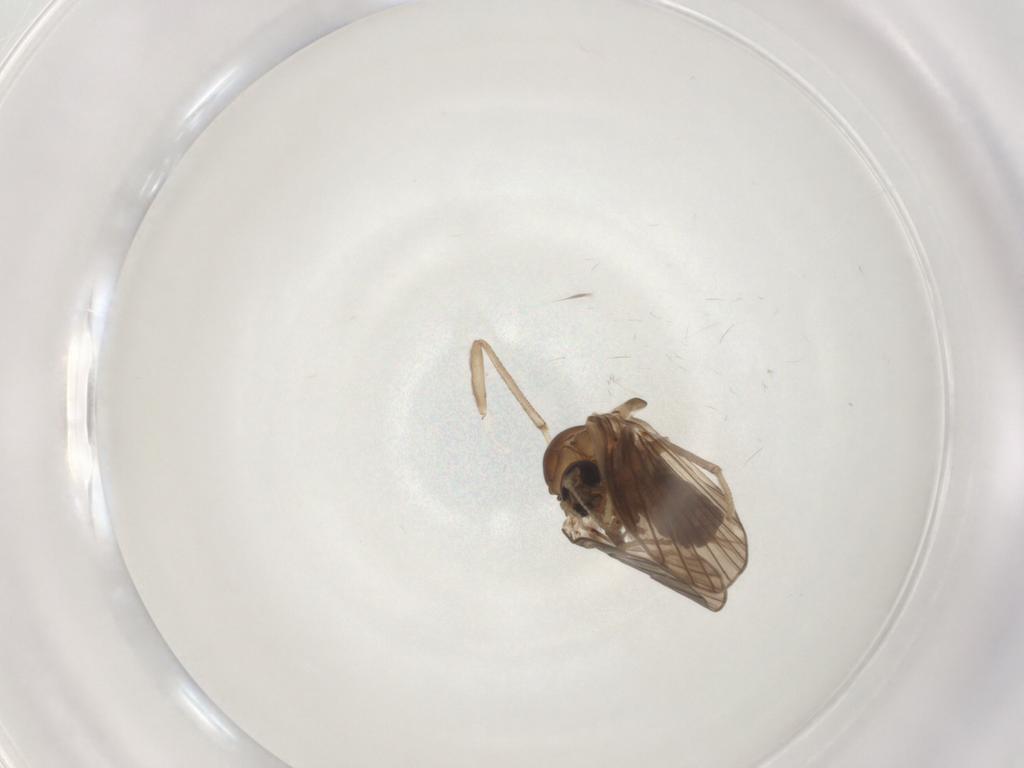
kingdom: Animalia
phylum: Arthropoda
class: Insecta
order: Diptera
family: Psychodidae
